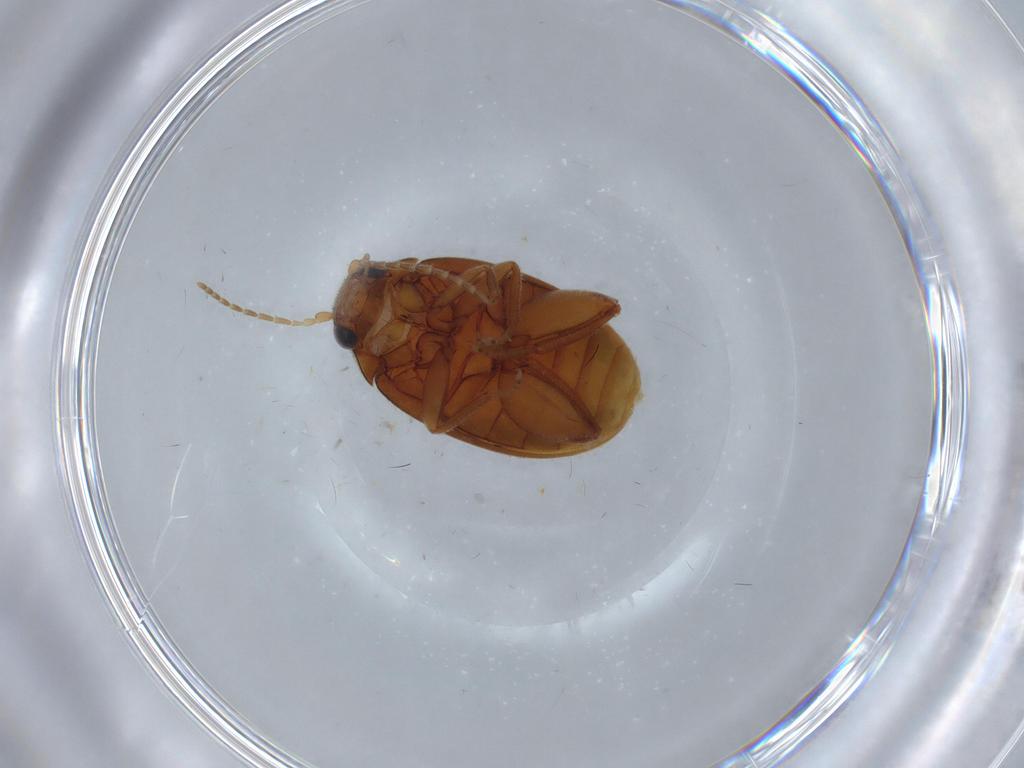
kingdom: Animalia
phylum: Arthropoda
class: Insecta
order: Coleoptera
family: Scirtidae
